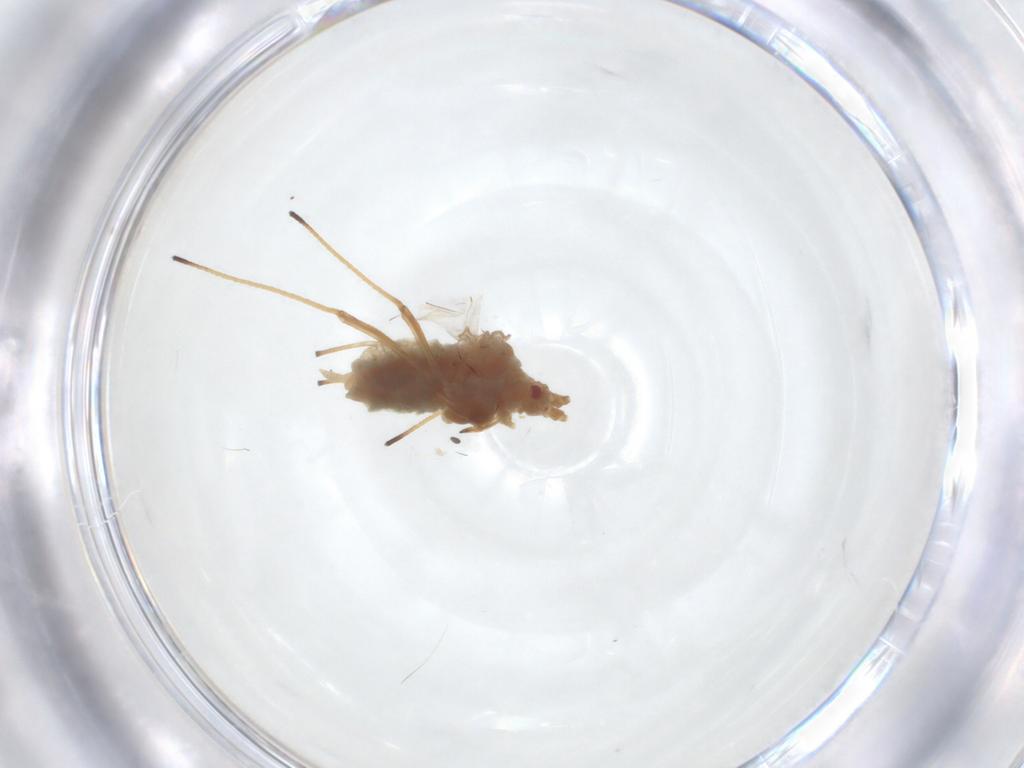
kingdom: Animalia
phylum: Arthropoda
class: Insecta
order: Hemiptera
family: Aphididae
